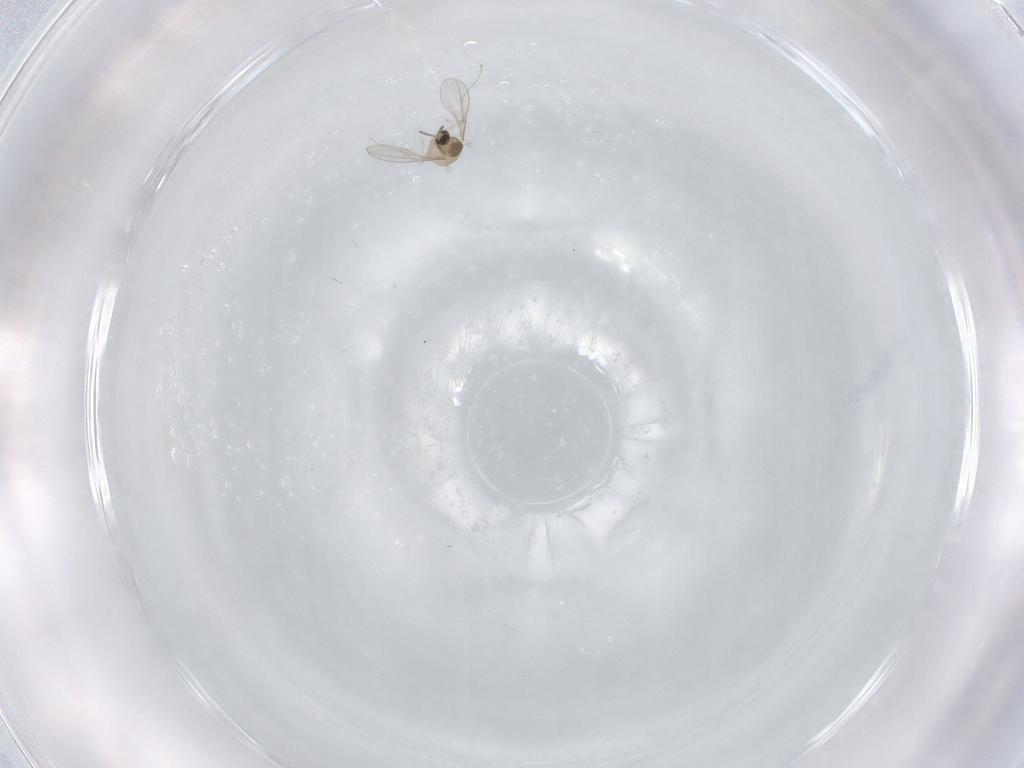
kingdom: Animalia
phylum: Arthropoda
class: Insecta
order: Diptera
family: Cecidomyiidae
